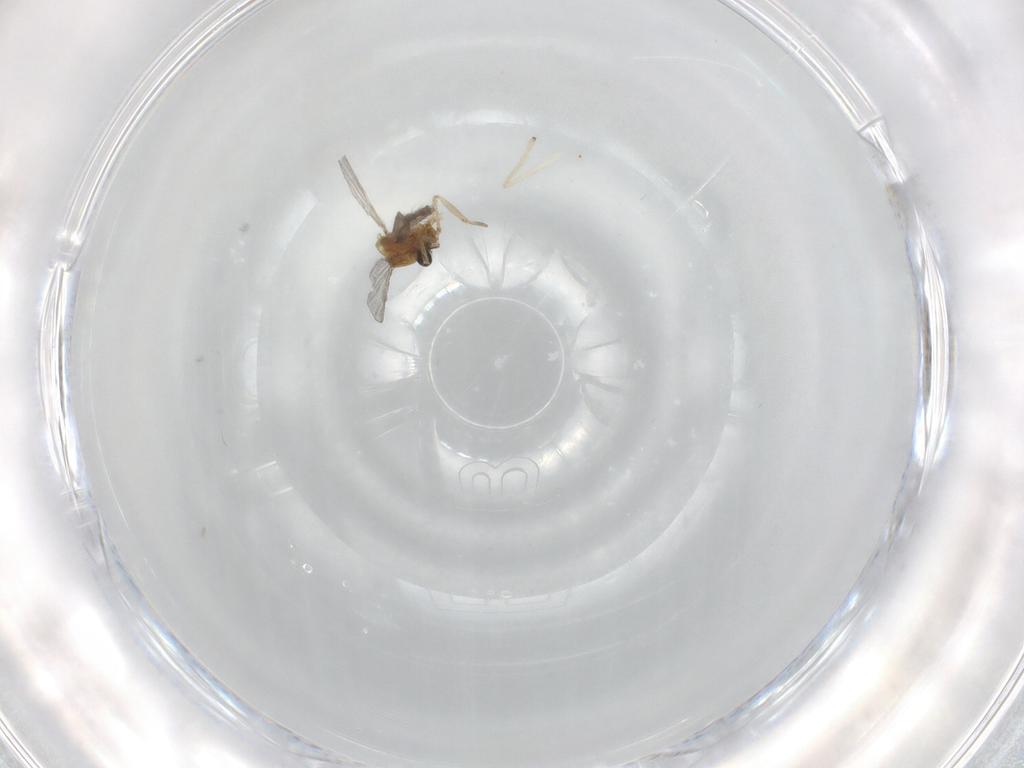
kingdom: Animalia
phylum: Arthropoda
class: Insecta
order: Diptera
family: Ceratopogonidae
